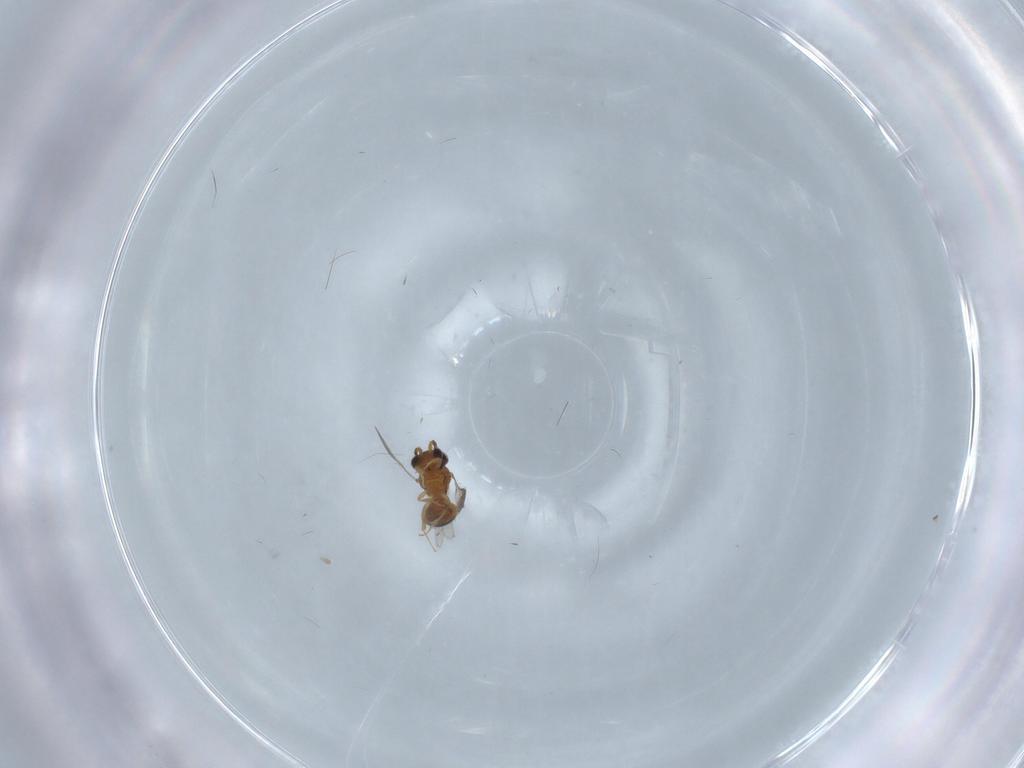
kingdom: Animalia
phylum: Arthropoda
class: Insecta
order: Hymenoptera
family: Scelionidae
